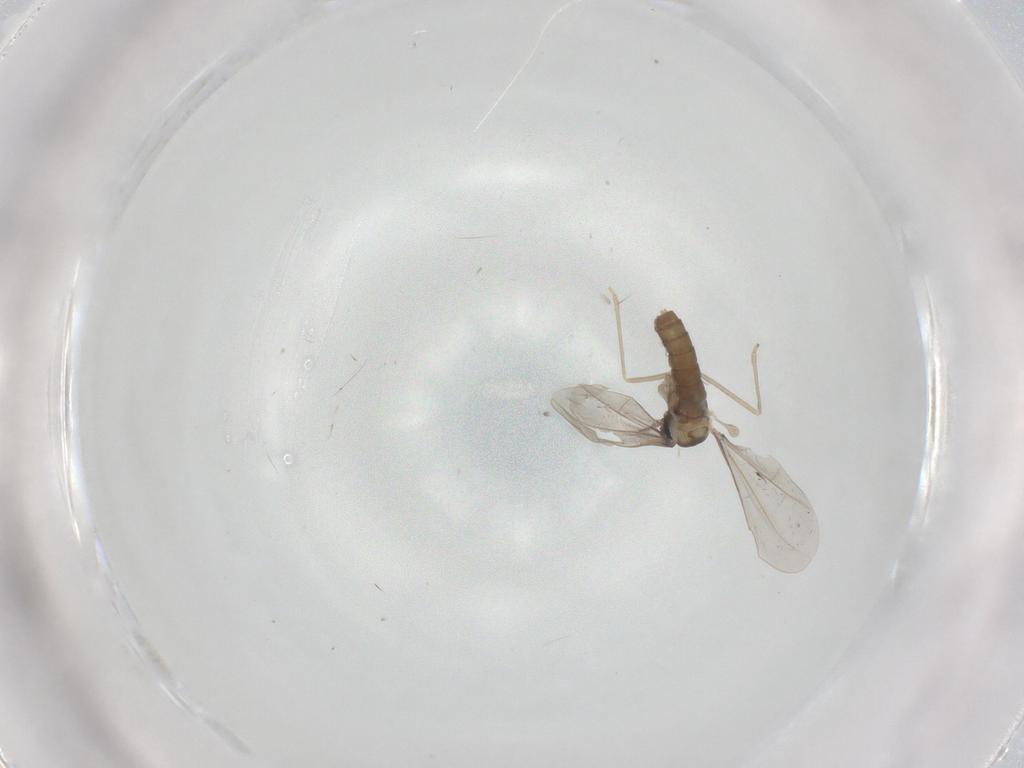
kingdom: Animalia
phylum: Arthropoda
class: Insecta
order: Diptera
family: Cecidomyiidae
